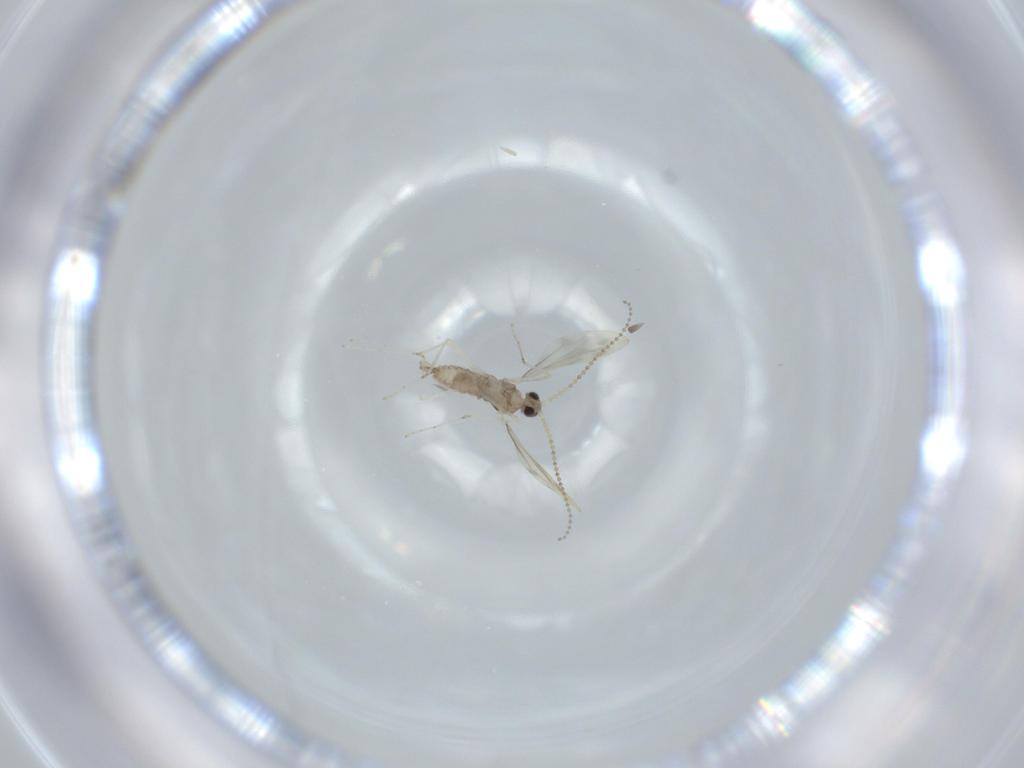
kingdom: Animalia
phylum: Arthropoda
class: Insecta
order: Diptera
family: Cecidomyiidae
